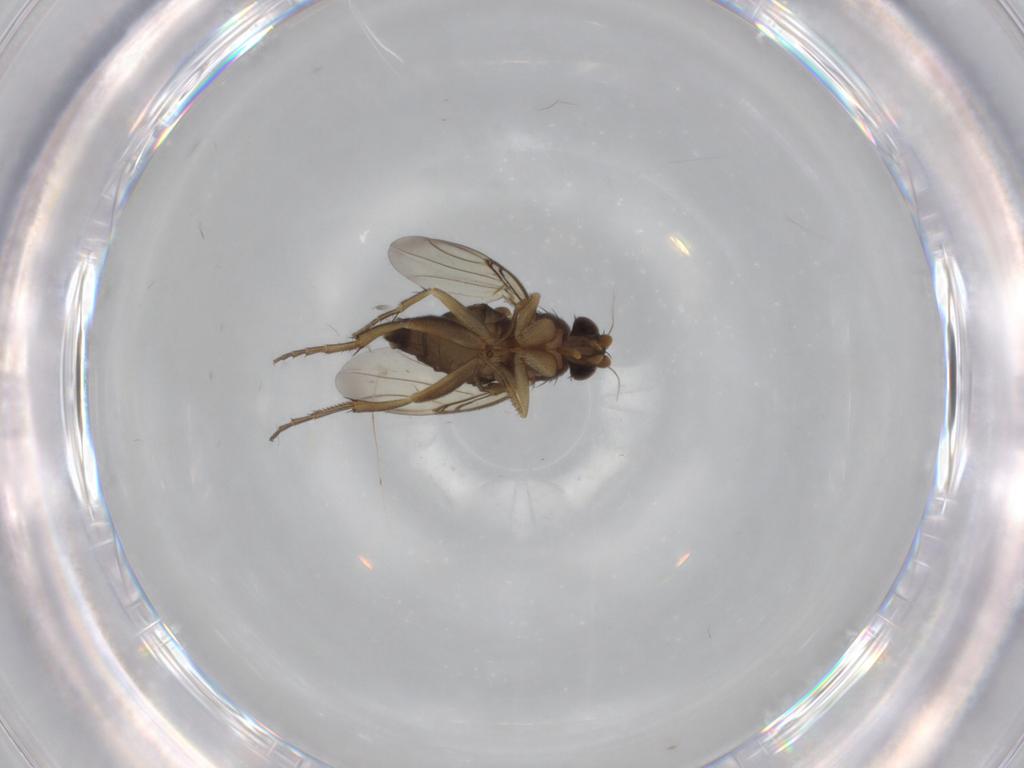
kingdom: Animalia
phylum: Arthropoda
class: Insecta
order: Diptera
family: Phoridae
